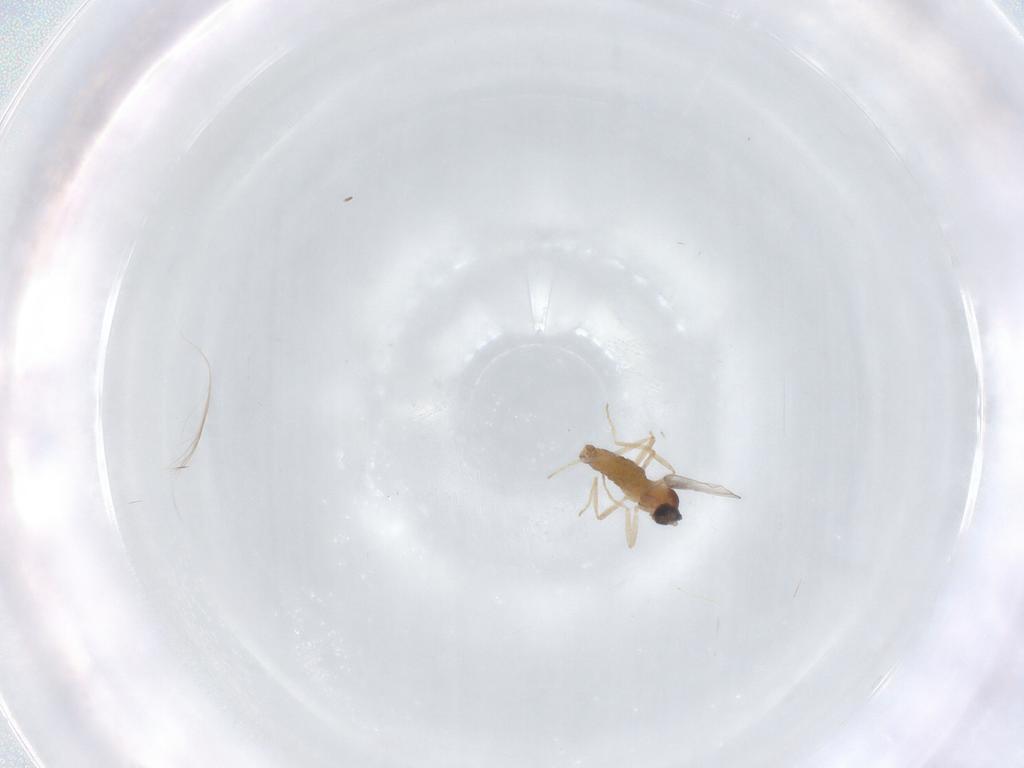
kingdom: Animalia
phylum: Arthropoda
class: Insecta
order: Diptera
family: Cecidomyiidae
